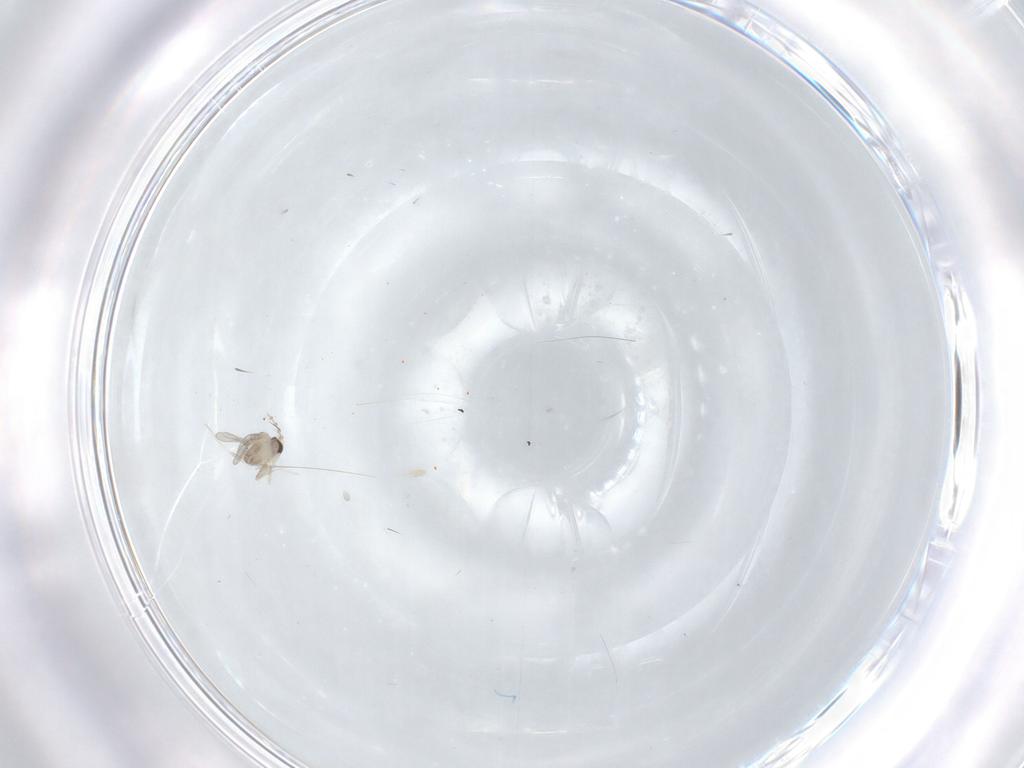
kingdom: Animalia
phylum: Arthropoda
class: Insecta
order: Diptera
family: Cecidomyiidae
